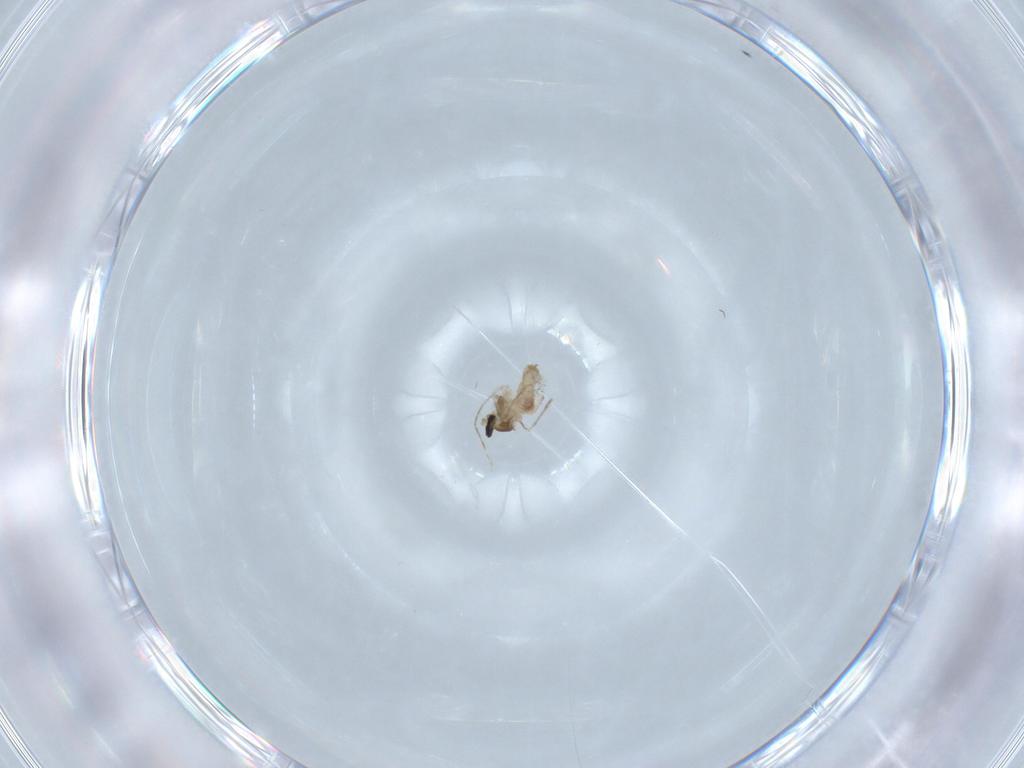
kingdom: Animalia
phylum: Arthropoda
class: Insecta
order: Diptera
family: Cecidomyiidae
